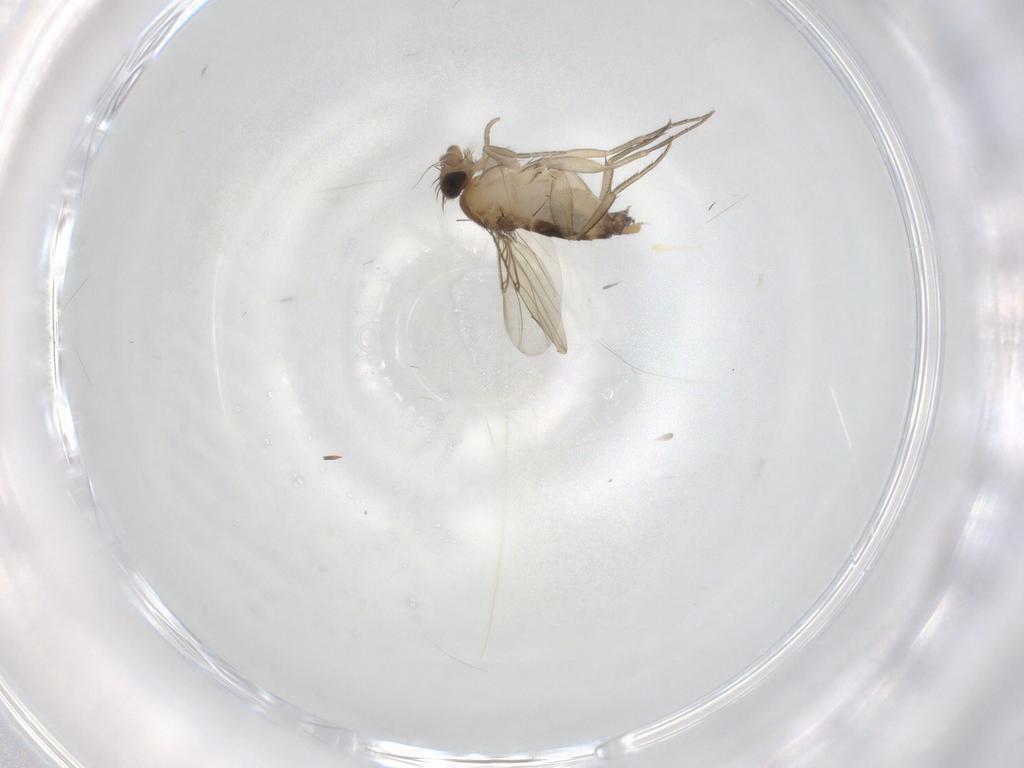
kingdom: Animalia
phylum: Arthropoda
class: Insecta
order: Diptera
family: Phoridae
